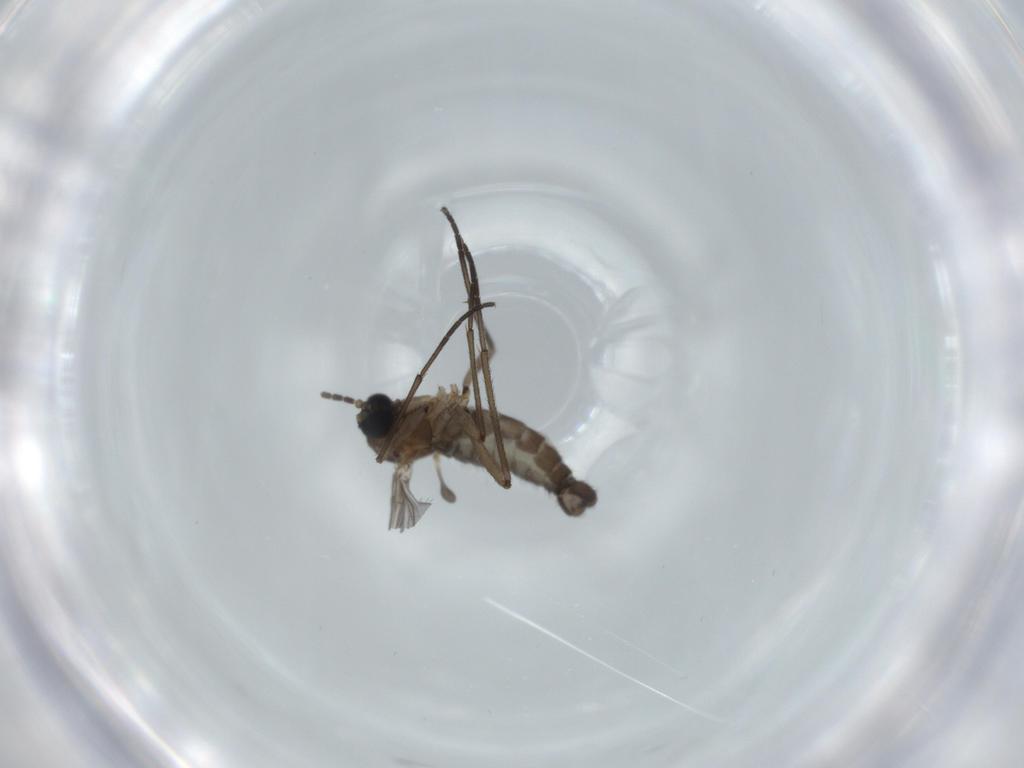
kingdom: Animalia
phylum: Arthropoda
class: Insecta
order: Diptera
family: Sciaridae
